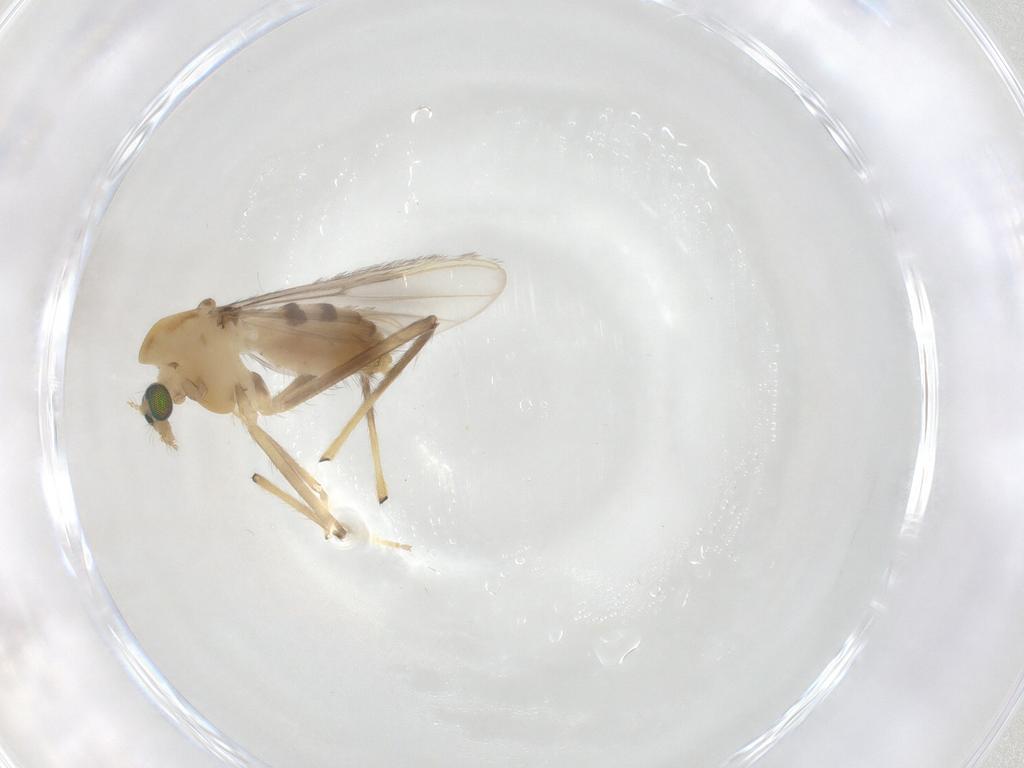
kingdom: Animalia
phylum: Arthropoda
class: Insecta
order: Diptera
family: Chironomidae
